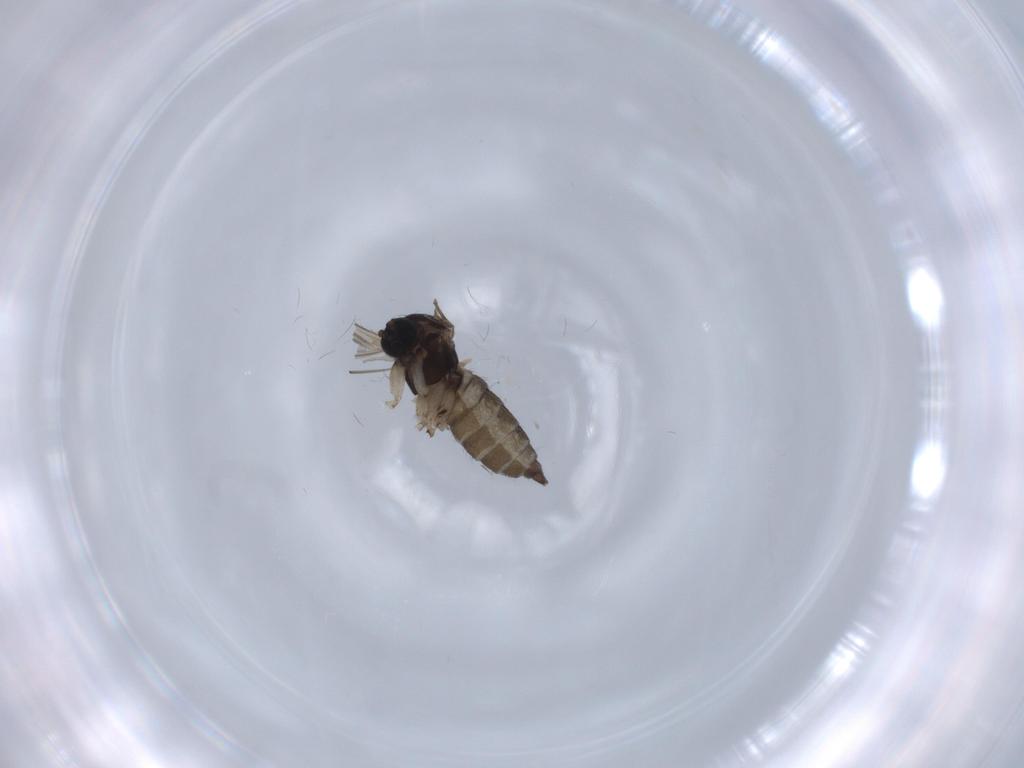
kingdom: Animalia
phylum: Arthropoda
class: Insecta
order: Diptera
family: Sciaridae
